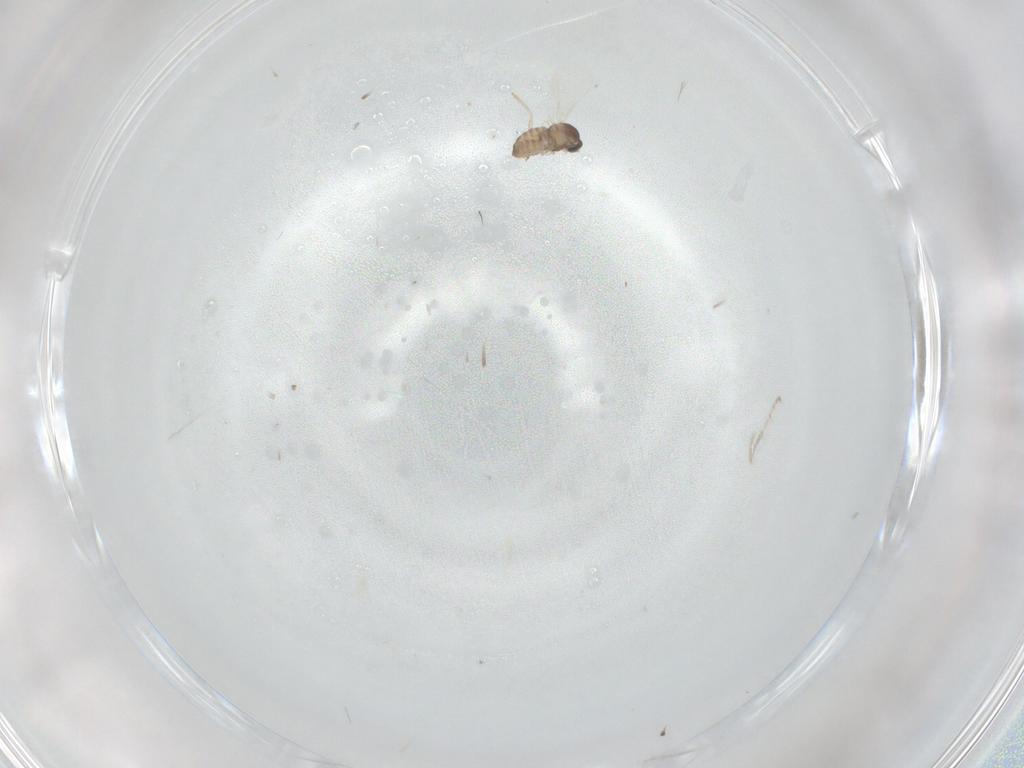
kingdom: Animalia
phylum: Arthropoda
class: Insecta
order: Diptera
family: Cecidomyiidae
